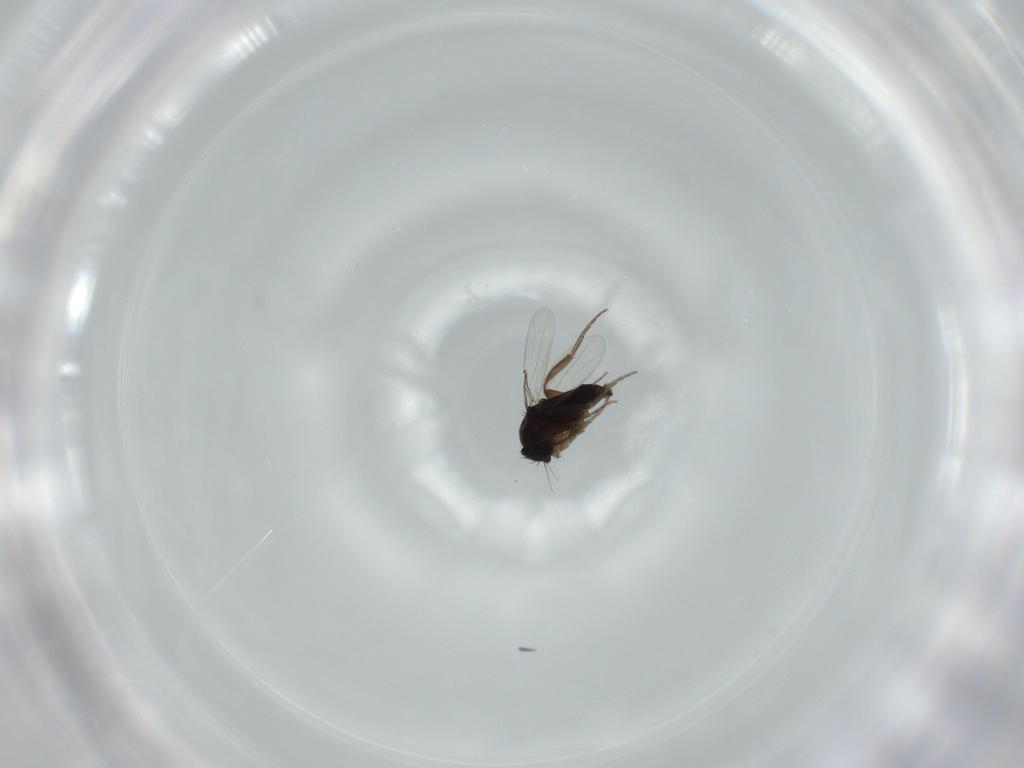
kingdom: Animalia
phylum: Arthropoda
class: Insecta
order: Diptera
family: Phoridae
